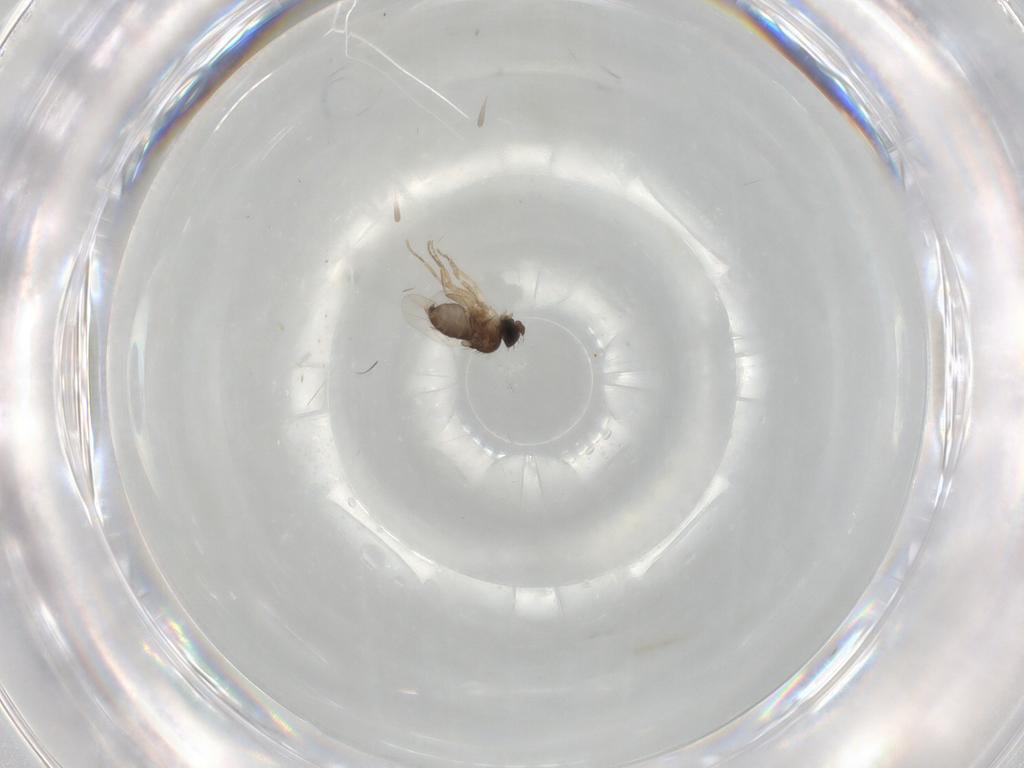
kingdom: Animalia
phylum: Arthropoda
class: Insecta
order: Diptera
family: Phoridae
